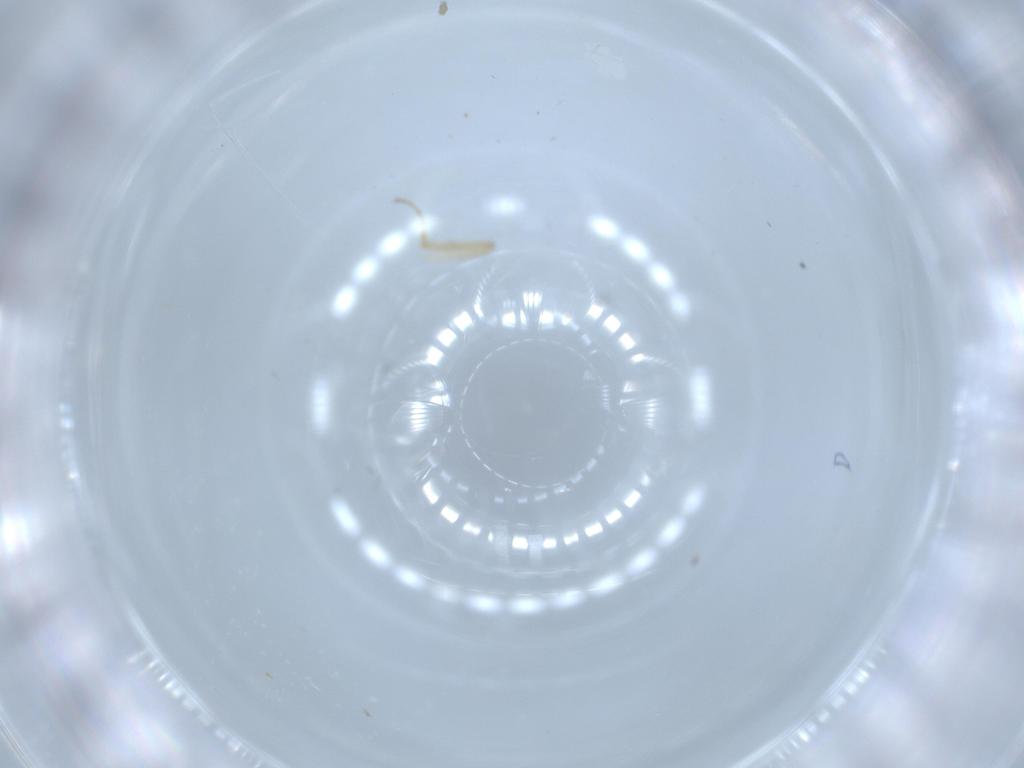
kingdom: Animalia
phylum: Arthropoda
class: Insecta
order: Diptera
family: Hybotidae
